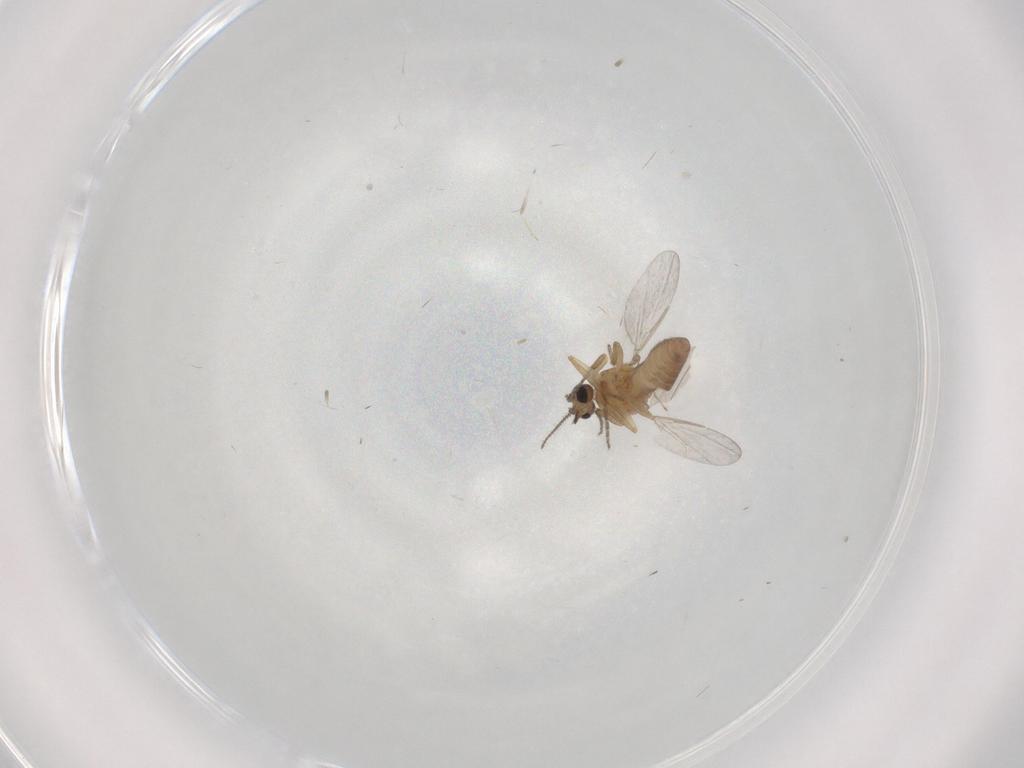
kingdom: Animalia
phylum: Arthropoda
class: Insecta
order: Diptera
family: Ceratopogonidae
